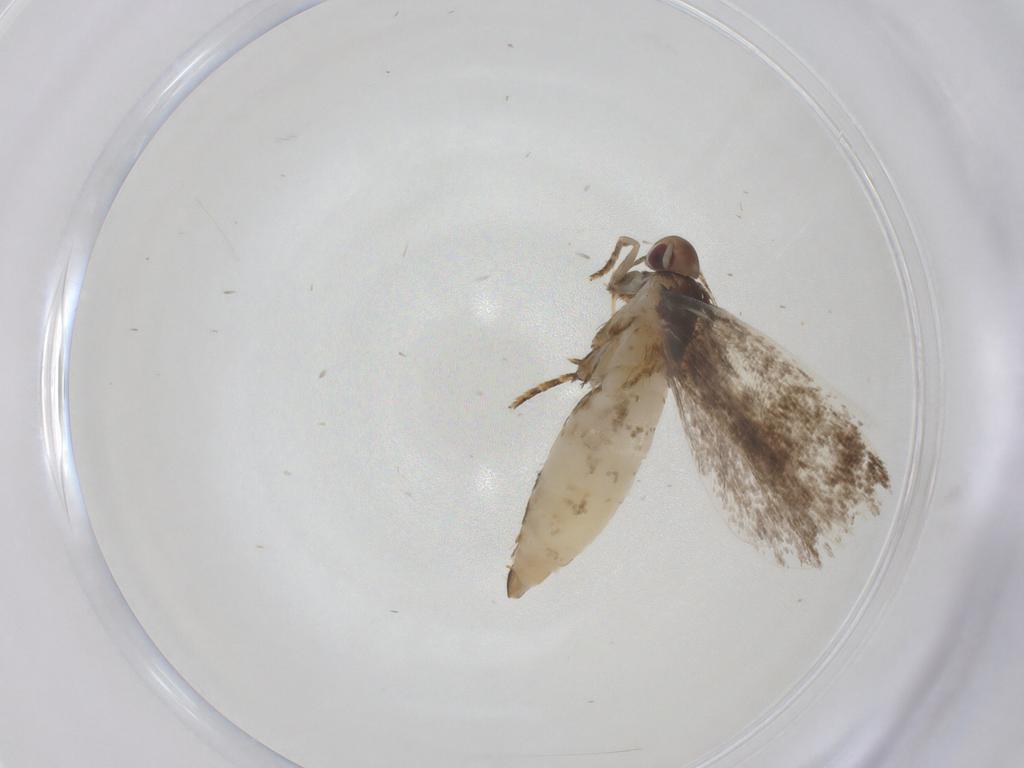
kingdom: Animalia
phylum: Arthropoda
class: Insecta
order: Lepidoptera
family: Gelechiidae
